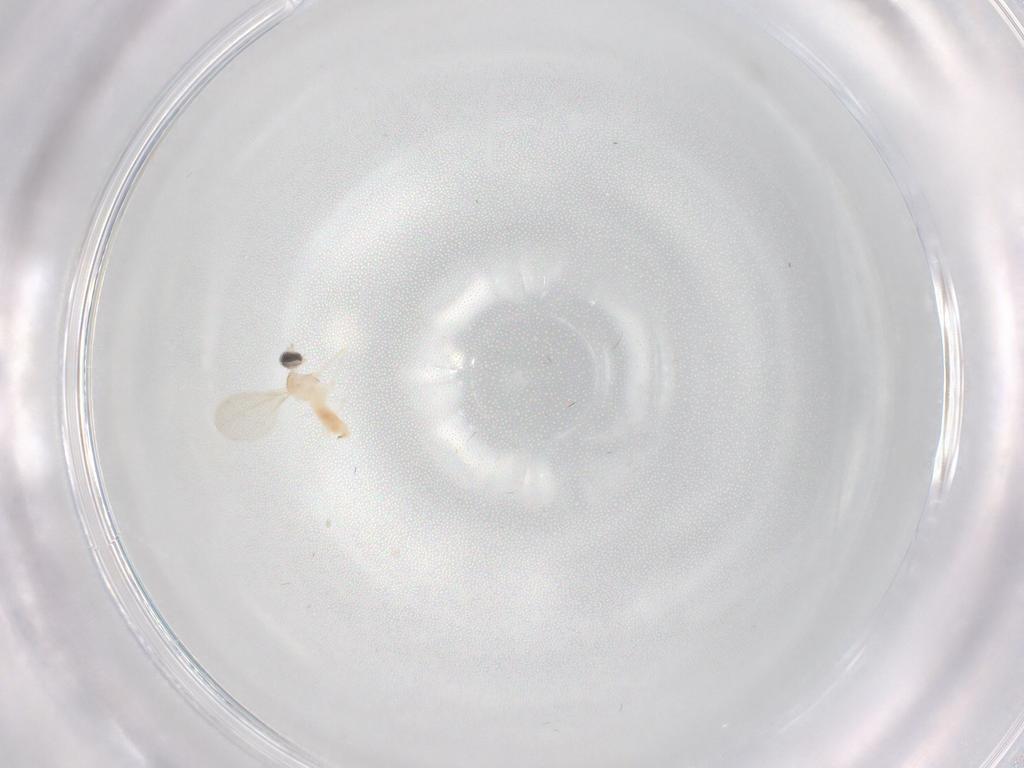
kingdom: Animalia
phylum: Arthropoda
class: Insecta
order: Diptera
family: Cecidomyiidae
